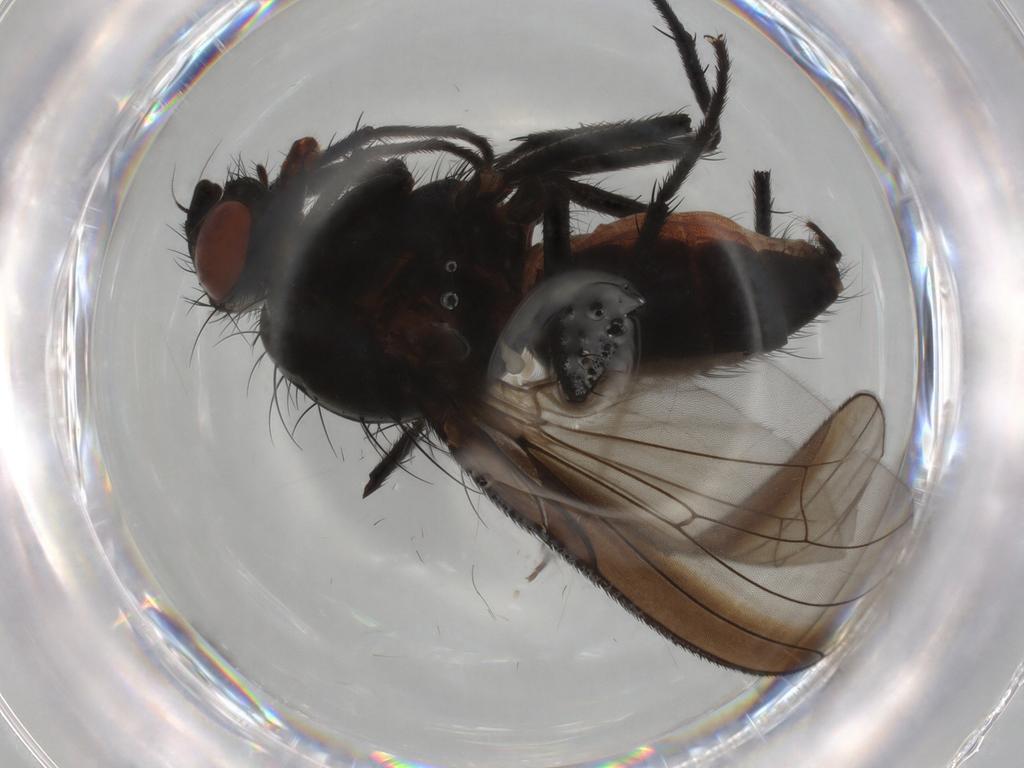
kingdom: Animalia
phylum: Arthropoda
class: Insecta
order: Diptera
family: Anthomyiidae
